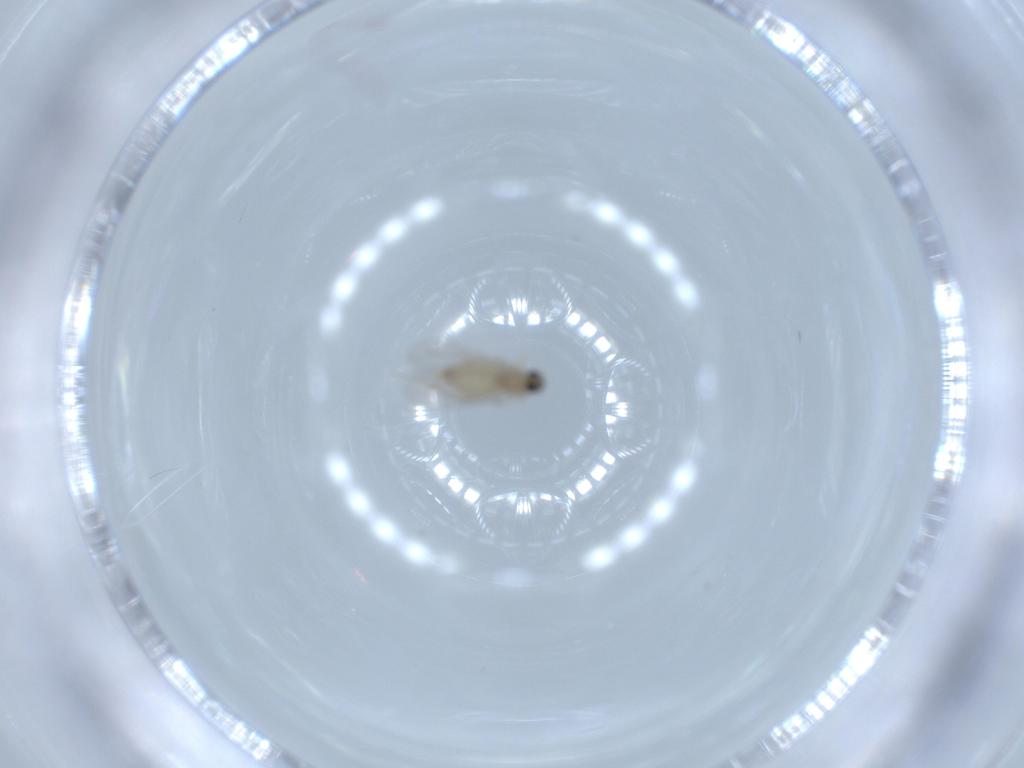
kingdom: Animalia
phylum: Arthropoda
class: Insecta
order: Diptera
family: Cecidomyiidae
